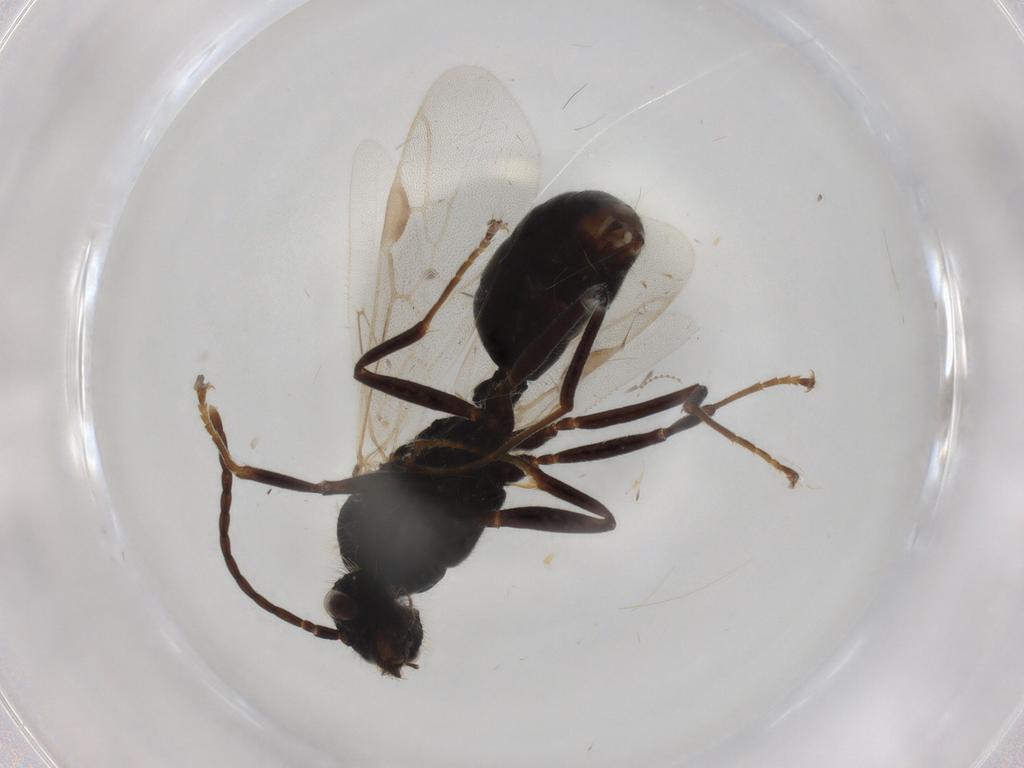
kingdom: Animalia
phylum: Arthropoda
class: Insecta
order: Hymenoptera
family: Formicidae
